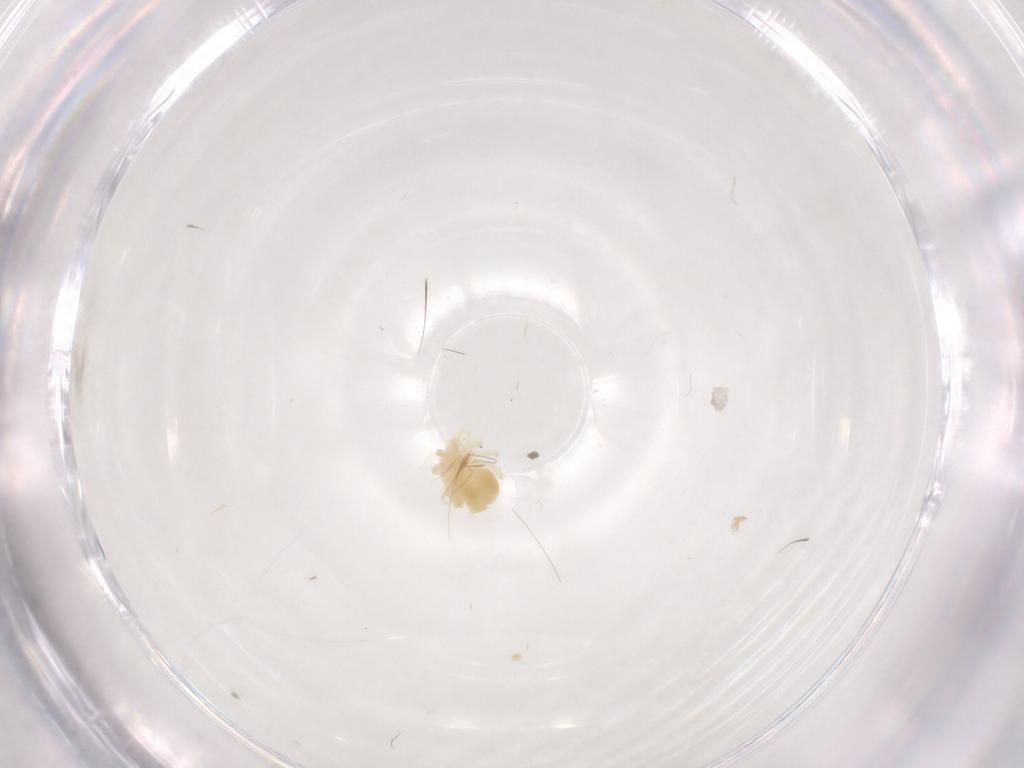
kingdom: Animalia
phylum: Arthropoda
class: Arachnida
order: Trombidiformes
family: Anystidae
